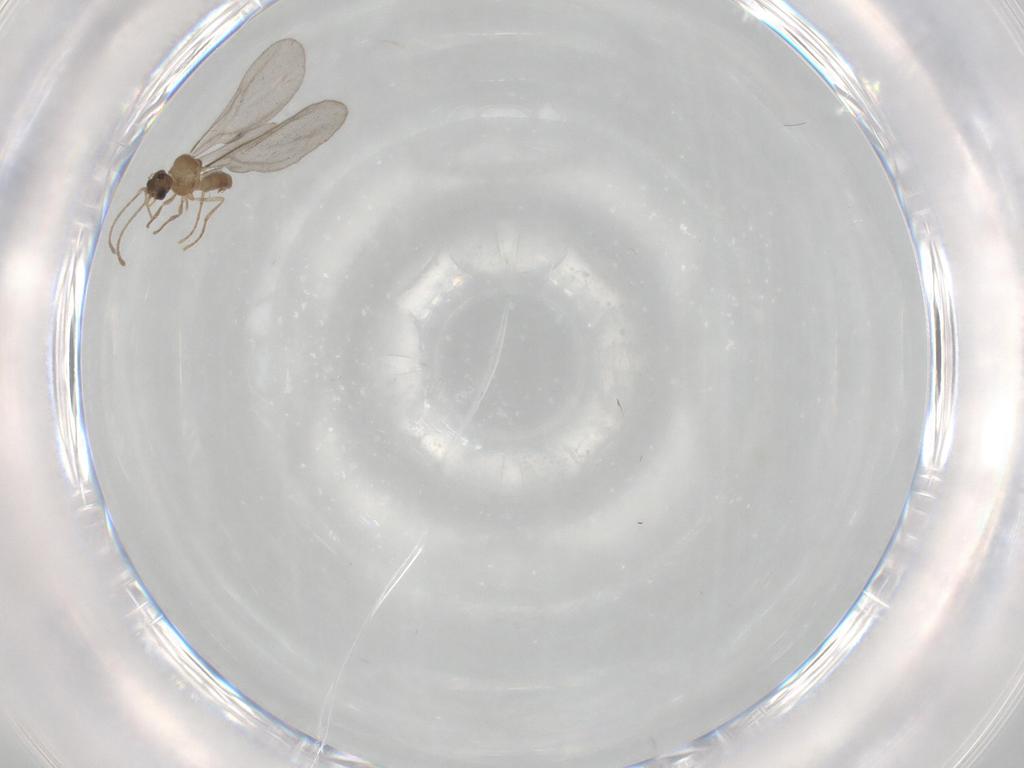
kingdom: Animalia
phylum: Arthropoda
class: Insecta
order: Hymenoptera
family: Formicidae
